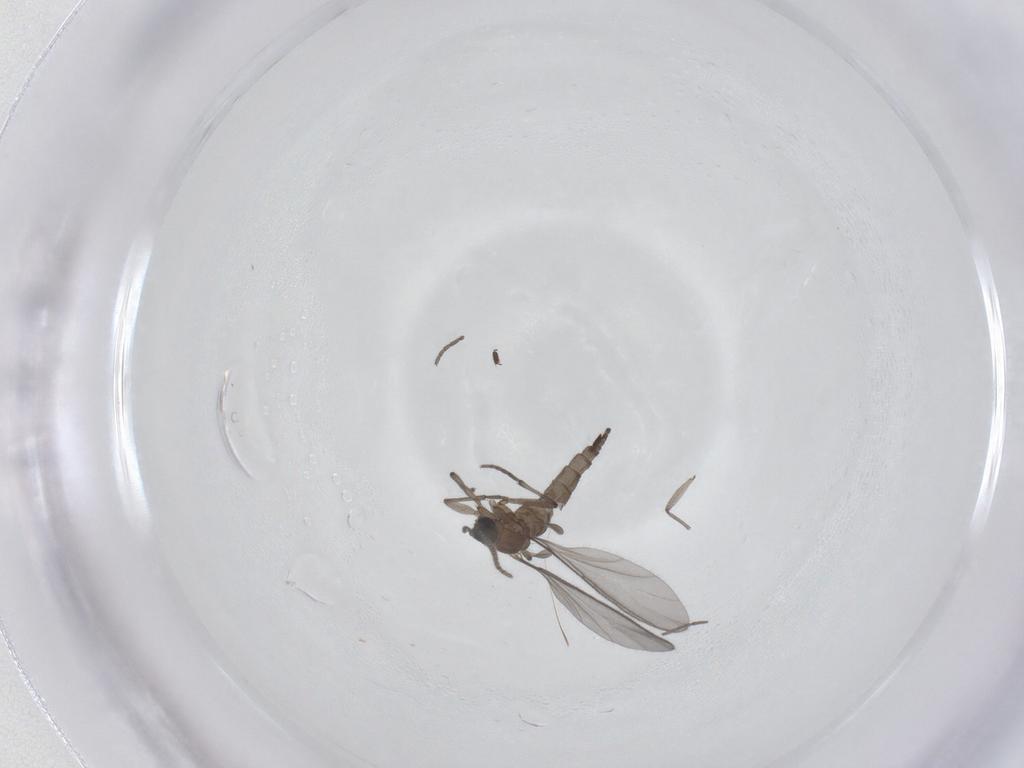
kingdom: Animalia
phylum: Arthropoda
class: Insecta
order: Diptera
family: Sciaridae
